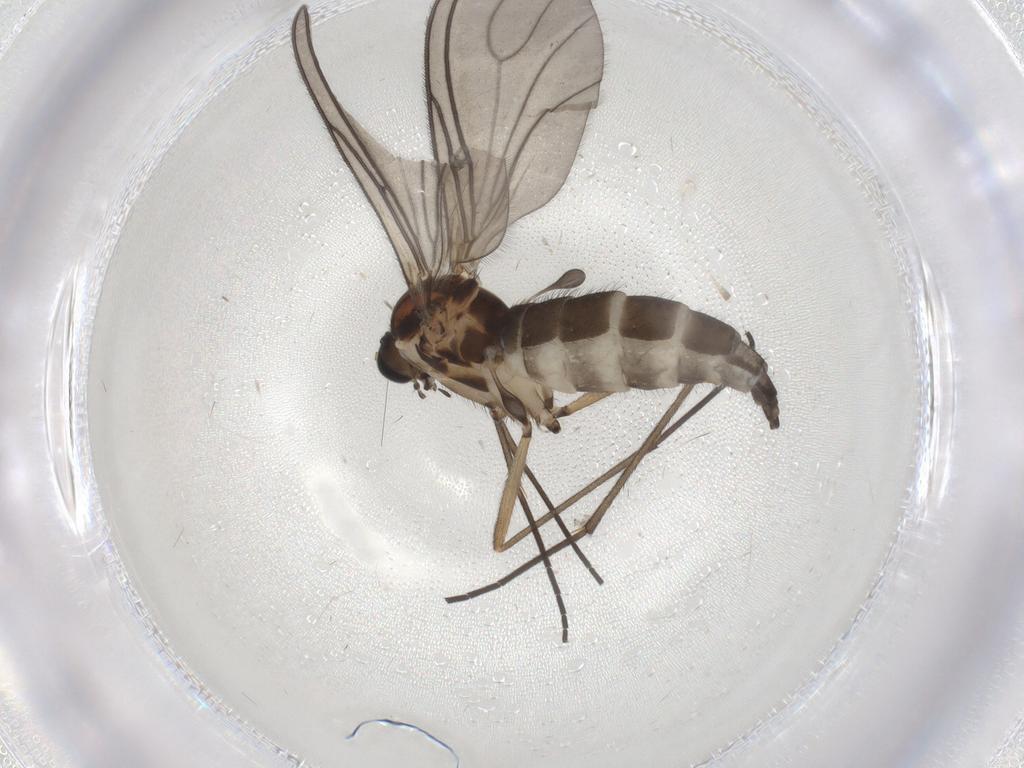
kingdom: Animalia
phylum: Arthropoda
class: Insecta
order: Diptera
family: Sciaridae
